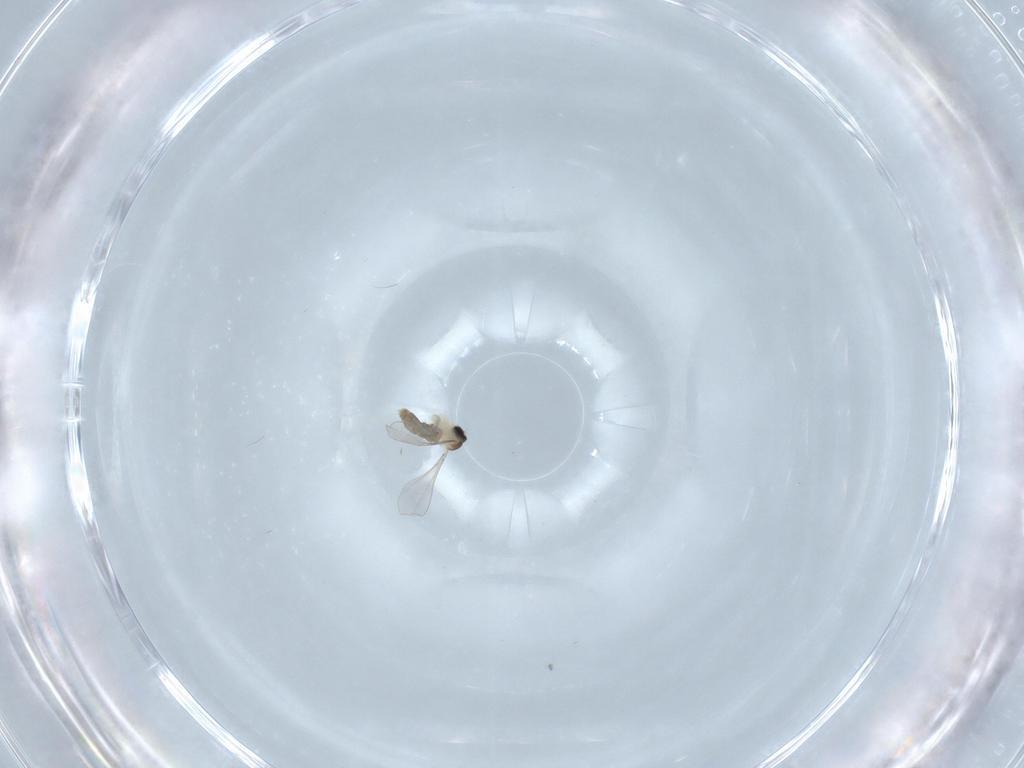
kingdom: Animalia
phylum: Arthropoda
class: Insecta
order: Diptera
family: Cecidomyiidae
